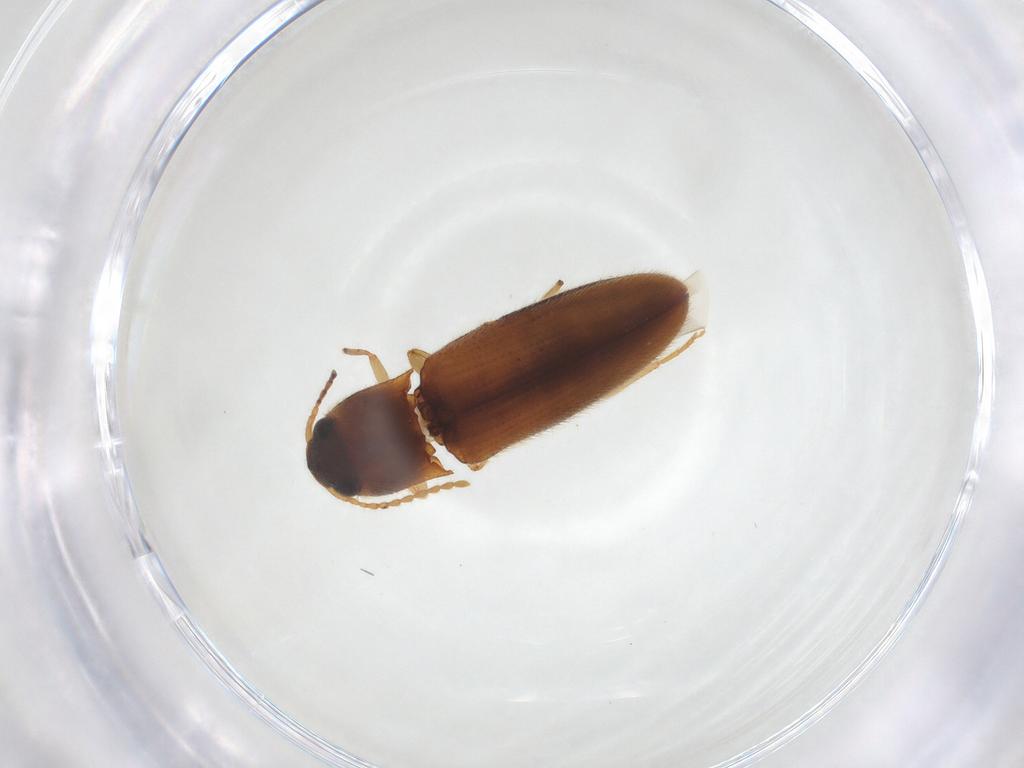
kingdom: Animalia
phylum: Arthropoda
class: Insecta
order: Coleoptera
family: Elateridae
